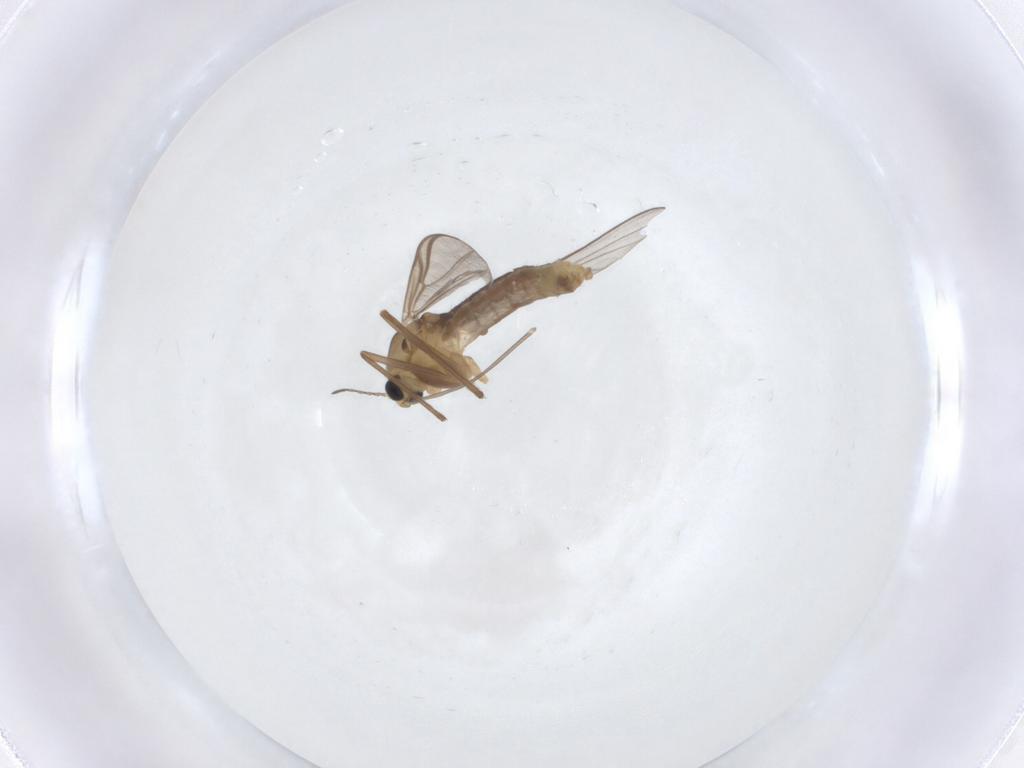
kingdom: Animalia
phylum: Arthropoda
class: Insecta
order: Diptera
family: Chironomidae
